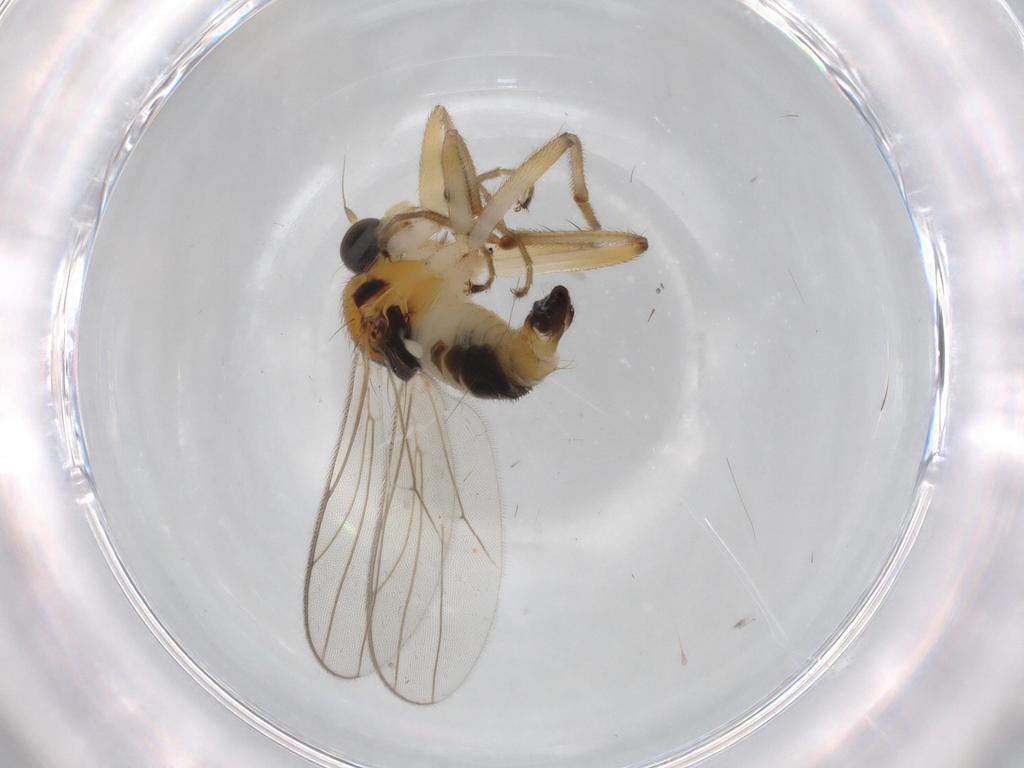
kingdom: Animalia
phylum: Arthropoda
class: Insecta
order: Diptera
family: Hybotidae
